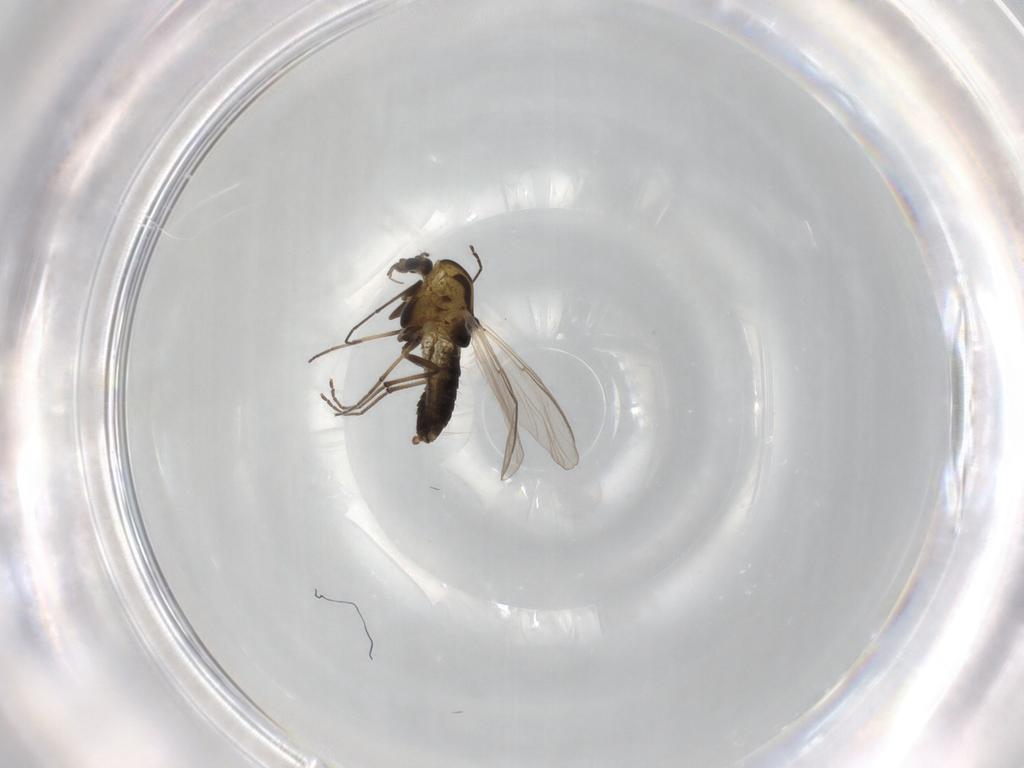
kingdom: Animalia
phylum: Arthropoda
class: Insecta
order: Diptera
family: Chironomidae
